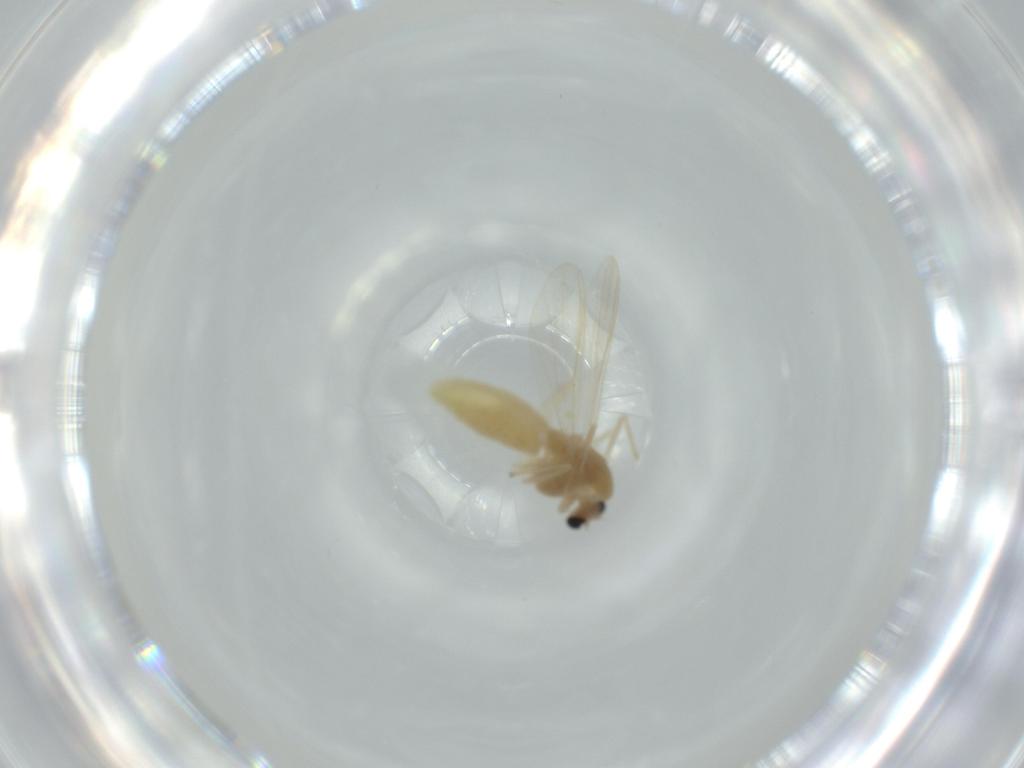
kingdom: Animalia
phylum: Arthropoda
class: Insecta
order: Diptera
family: Chironomidae
